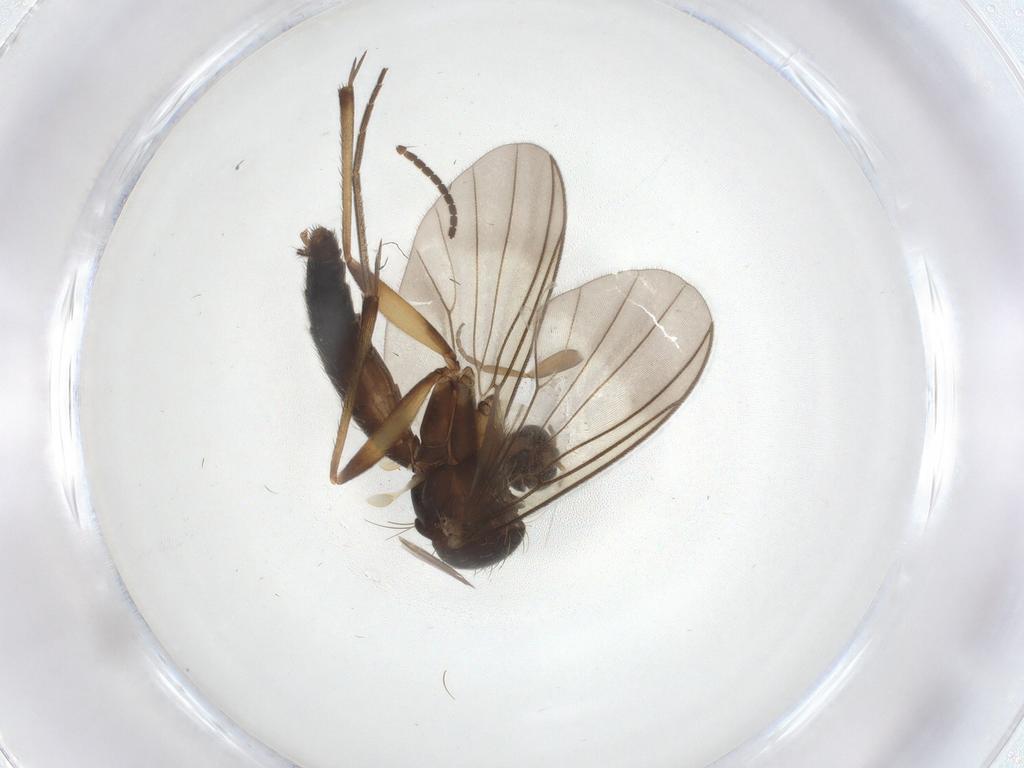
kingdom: Animalia
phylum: Arthropoda
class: Insecta
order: Diptera
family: Mycetophilidae
